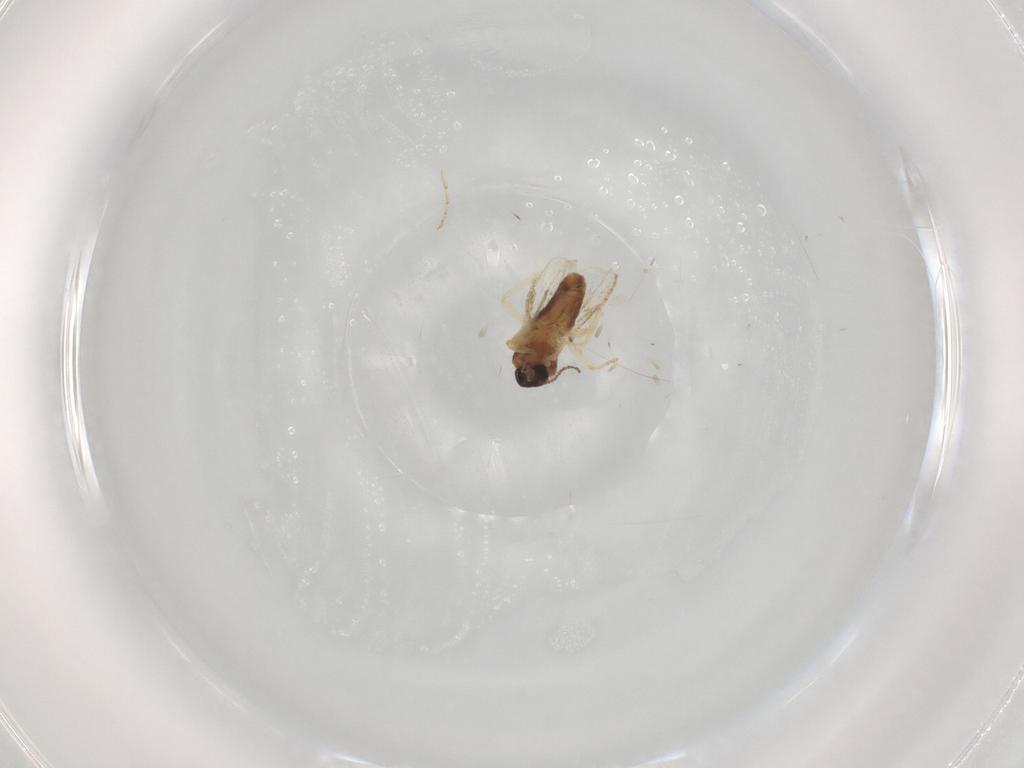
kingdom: Animalia
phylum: Arthropoda
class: Insecta
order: Diptera
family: Ceratopogonidae
